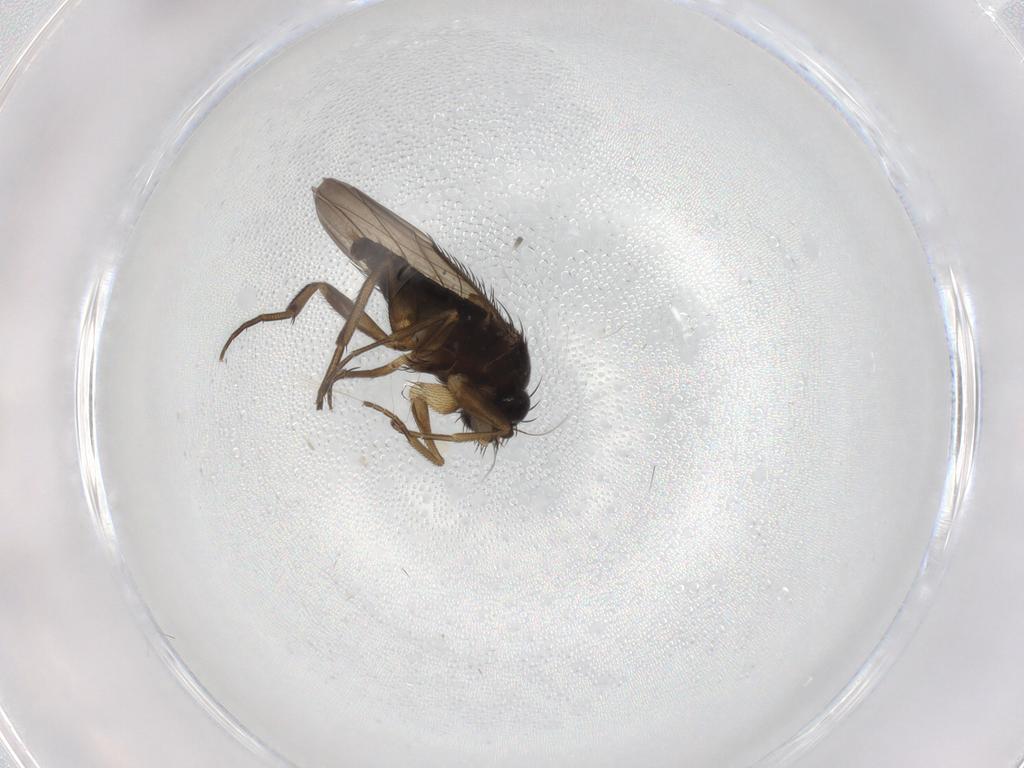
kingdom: Animalia
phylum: Arthropoda
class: Insecta
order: Diptera
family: Phoridae
